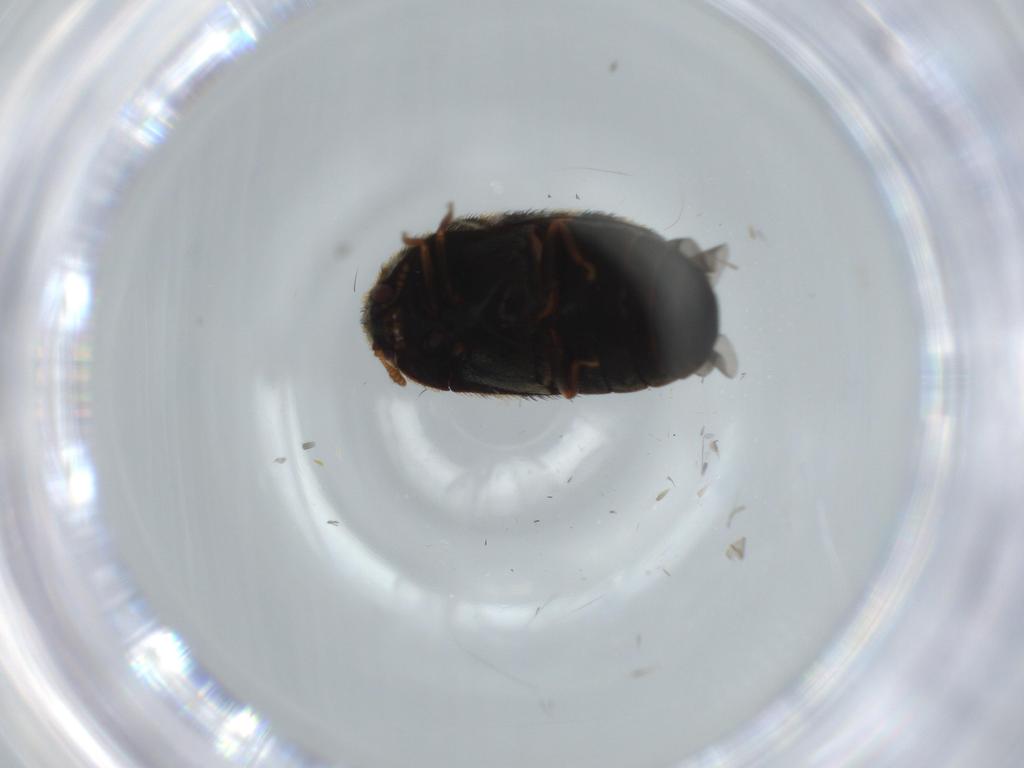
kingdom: Animalia
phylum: Arthropoda
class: Insecta
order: Coleoptera
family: Dermestidae
